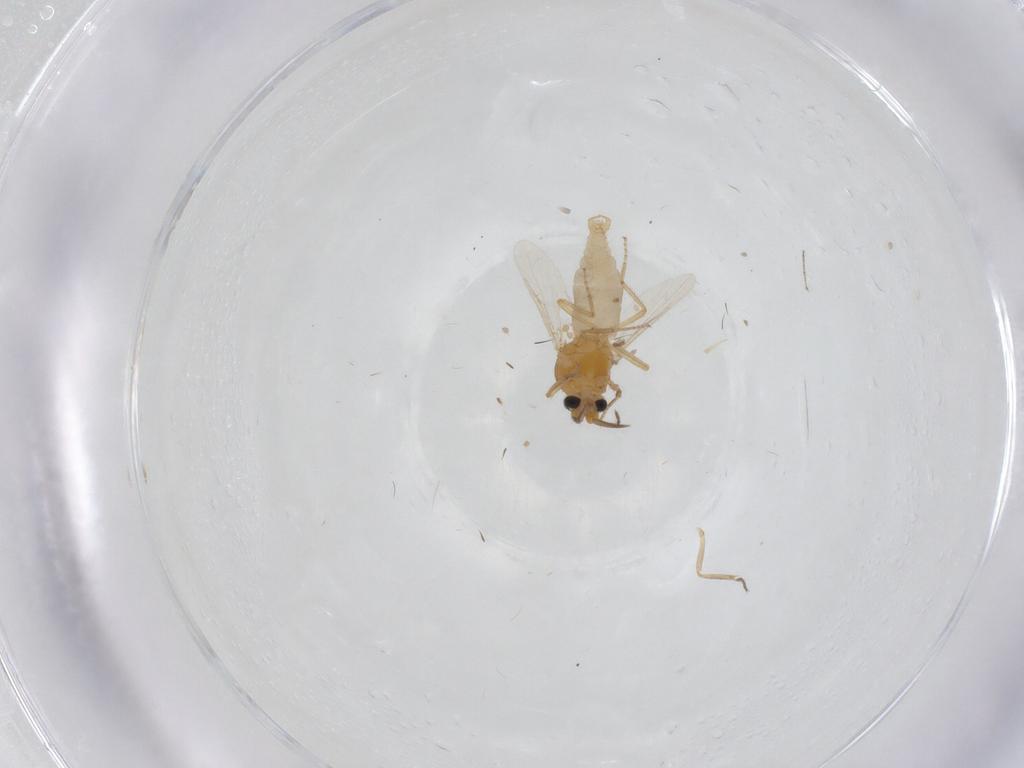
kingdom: Animalia
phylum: Arthropoda
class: Insecta
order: Diptera
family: Ceratopogonidae
